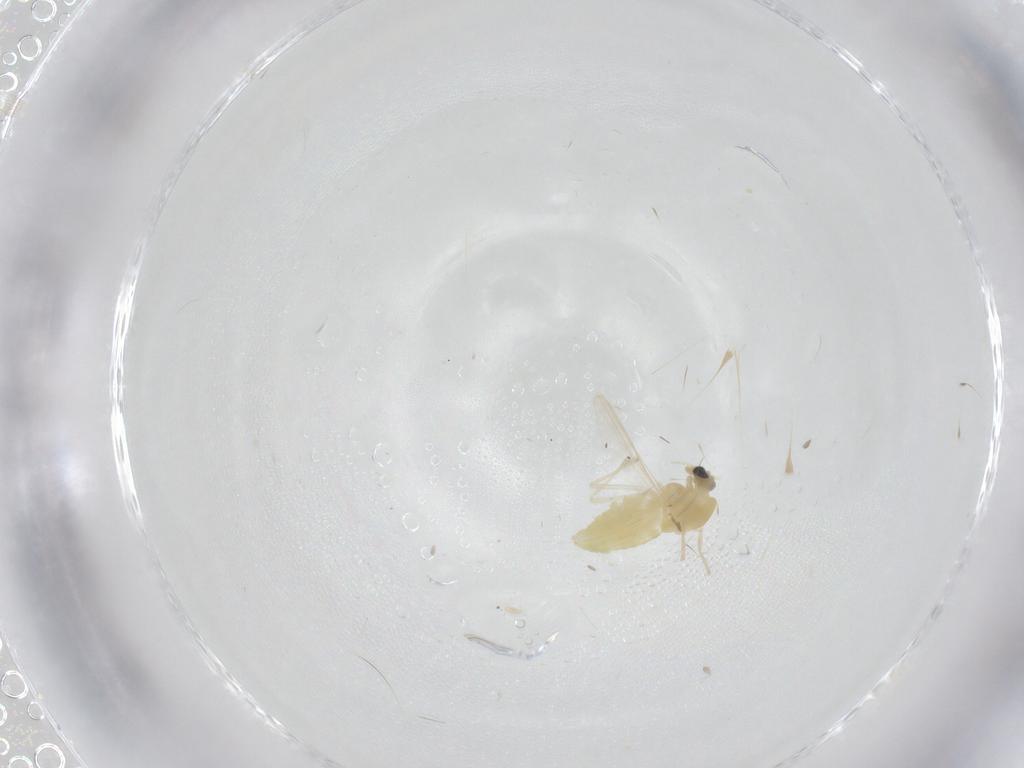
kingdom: Animalia
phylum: Arthropoda
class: Insecta
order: Diptera
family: Chironomidae
